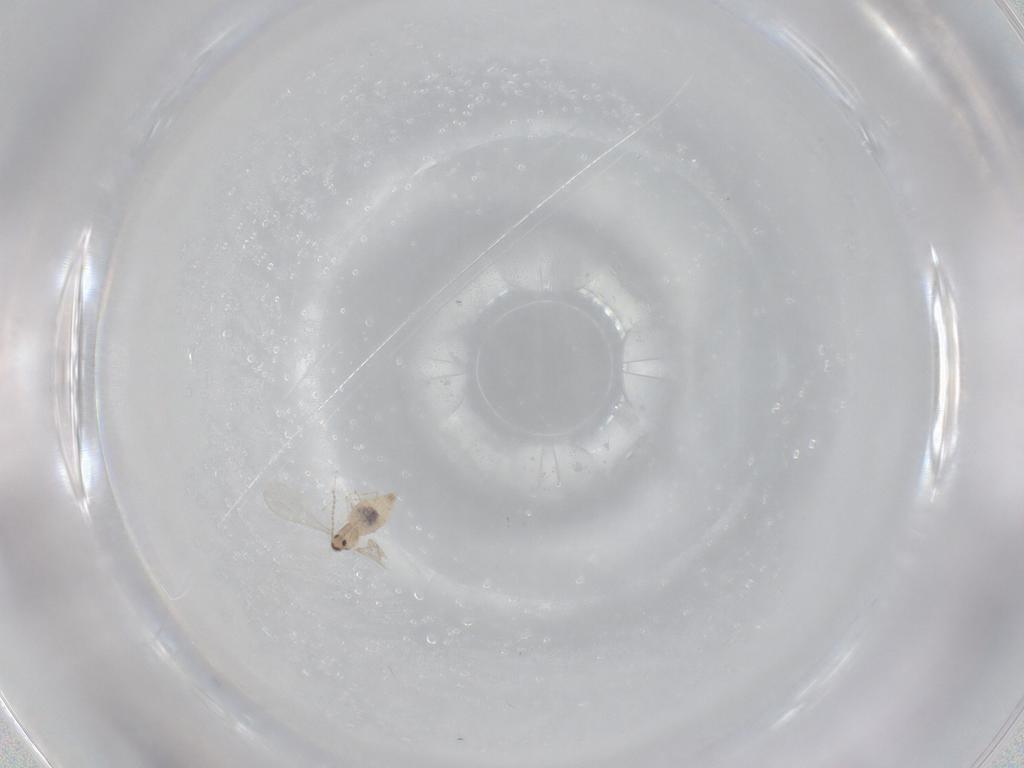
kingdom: Animalia
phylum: Arthropoda
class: Insecta
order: Diptera
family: Cecidomyiidae
